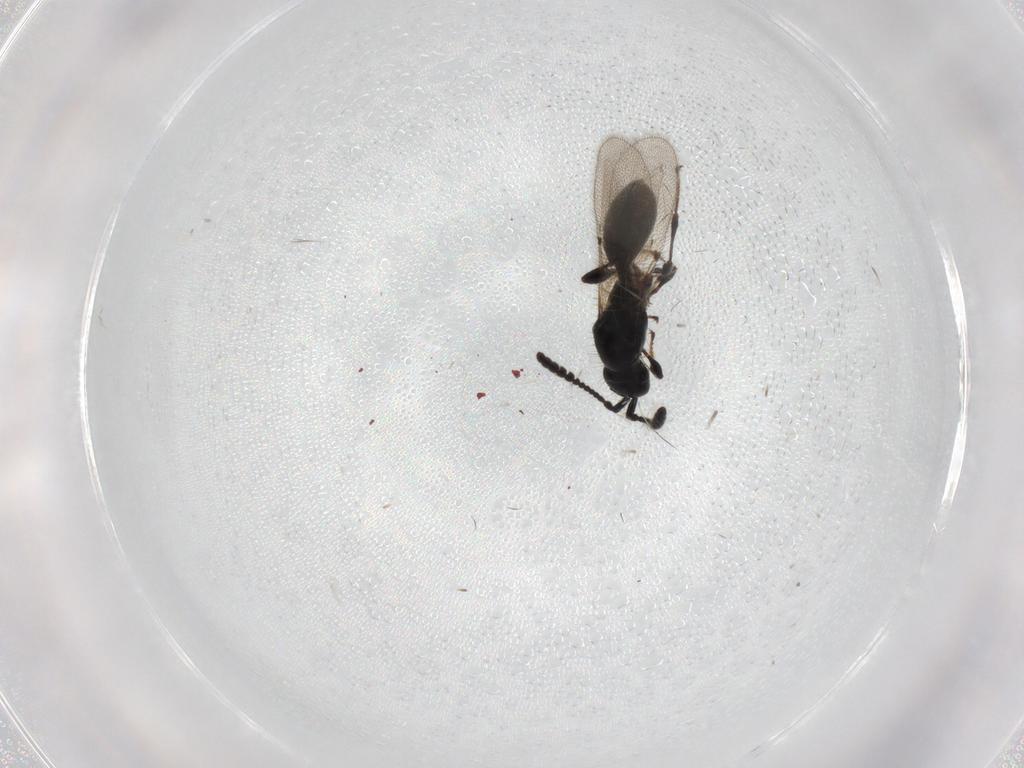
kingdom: Animalia
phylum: Arthropoda
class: Insecta
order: Hymenoptera
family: Diapriidae
